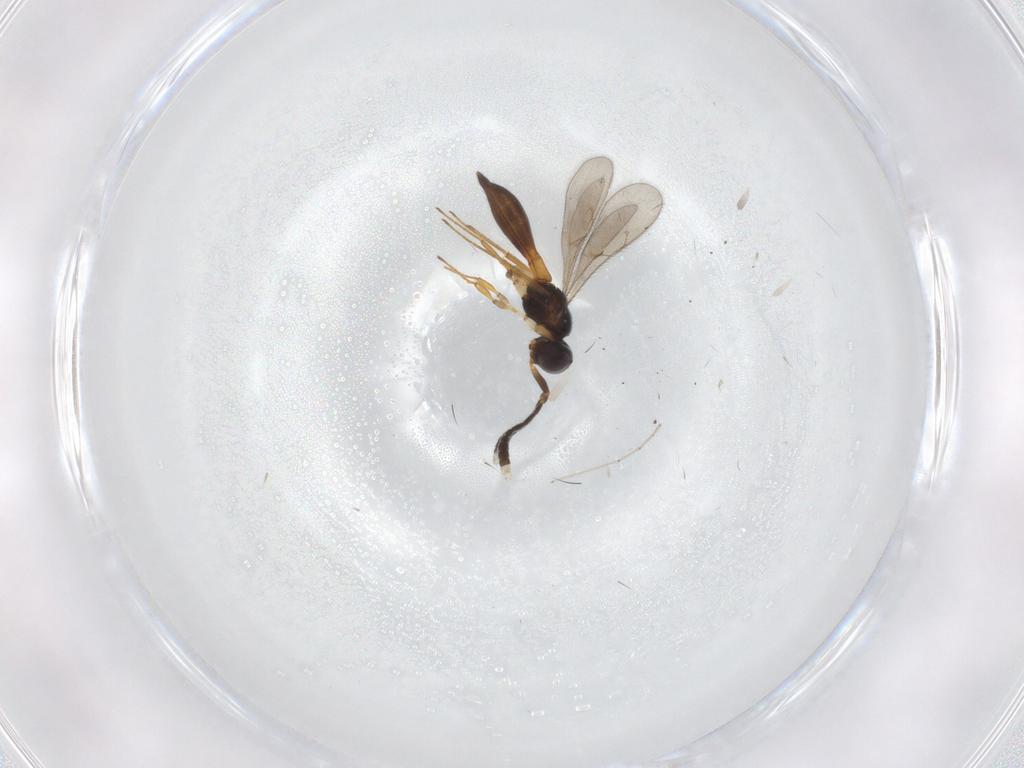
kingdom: Animalia
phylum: Arthropoda
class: Insecta
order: Hymenoptera
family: Scelionidae
